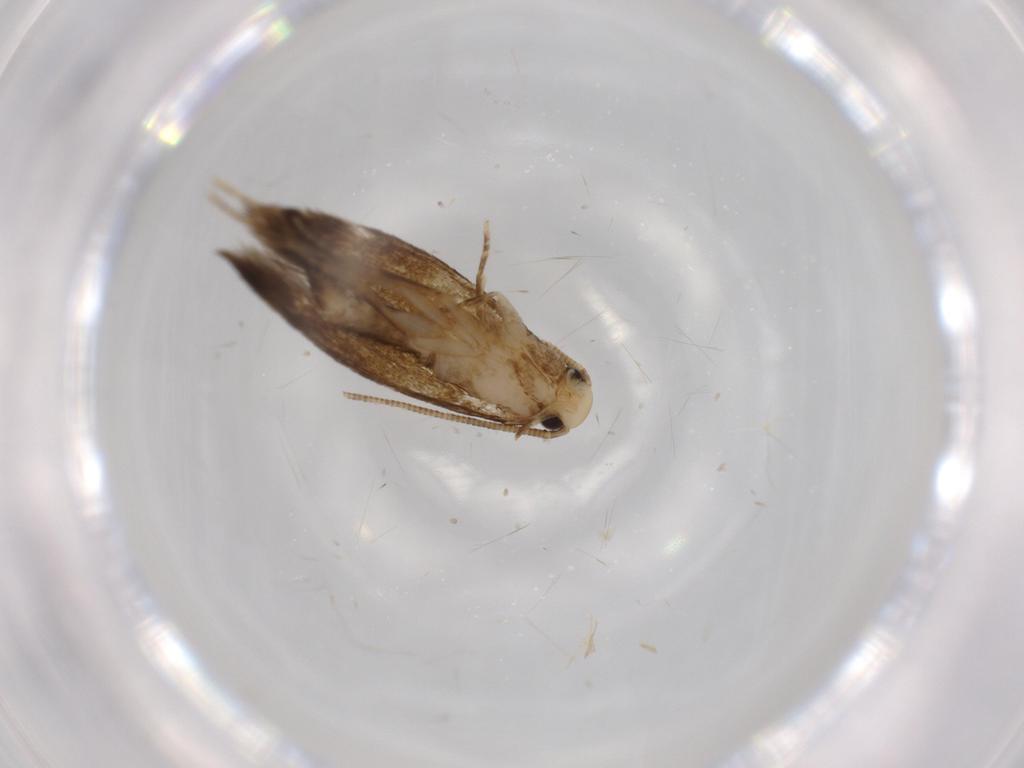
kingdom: Animalia
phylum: Arthropoda
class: Insecta
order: Lepidoptera
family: Tineidae
